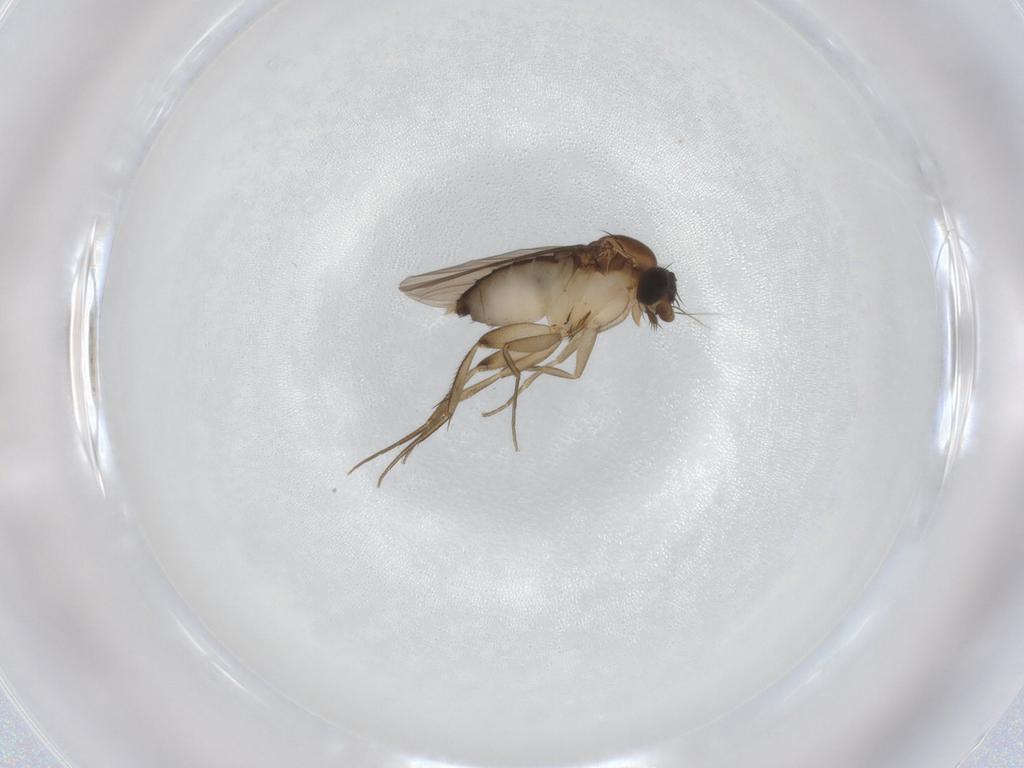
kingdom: Animalia
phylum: Arthropoda
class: Insecta
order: Diptera
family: Phoridae
